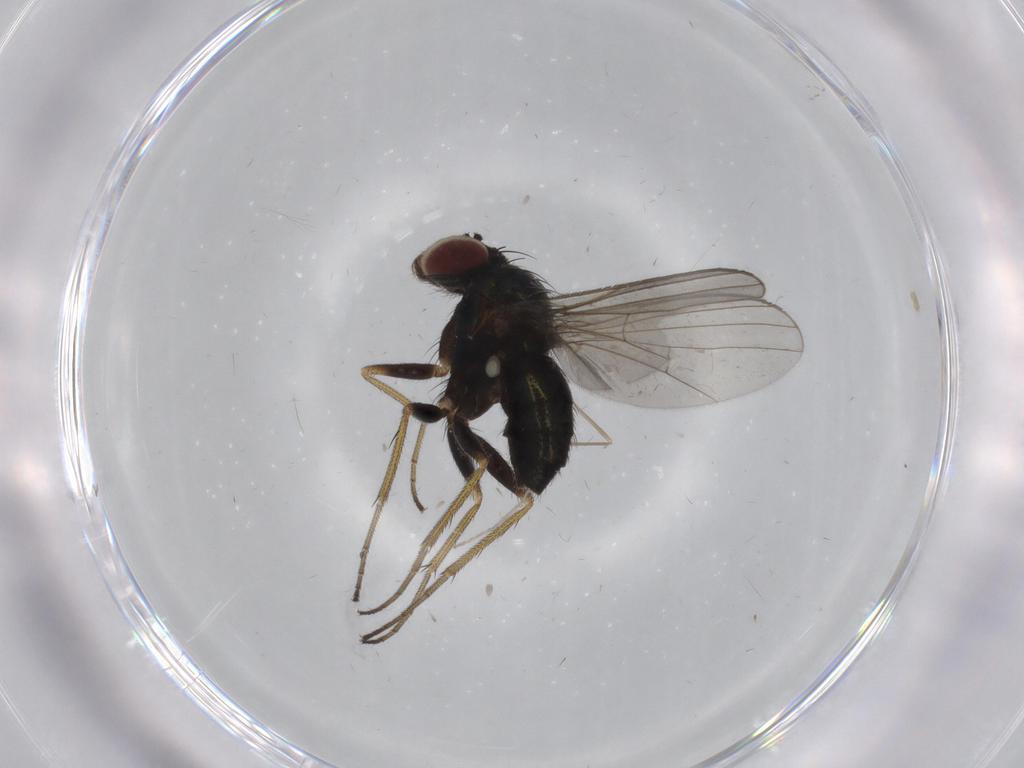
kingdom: Animalia
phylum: Arthropoda
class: Insecta
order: Diptera
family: Dolichopodidae
